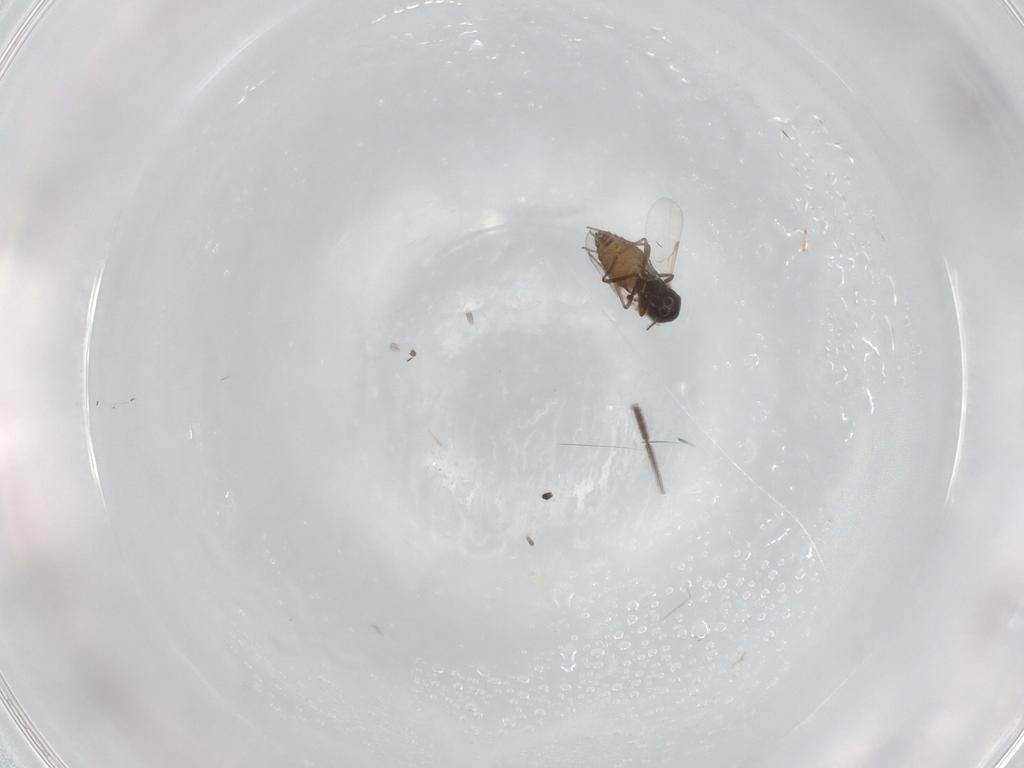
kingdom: Animalia
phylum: Arthropoda
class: Insecta
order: Diptera
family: Ceratopogonidae
